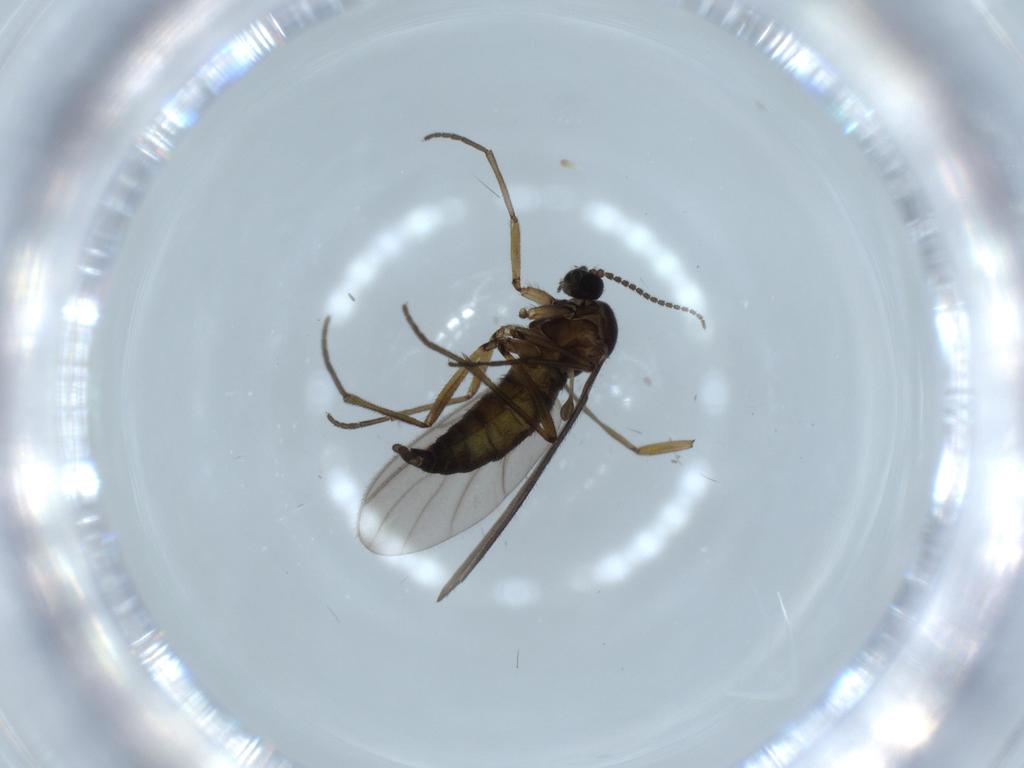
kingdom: Animalia
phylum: Arthropoda
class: Insecta
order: Diptera
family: Sciaridae
